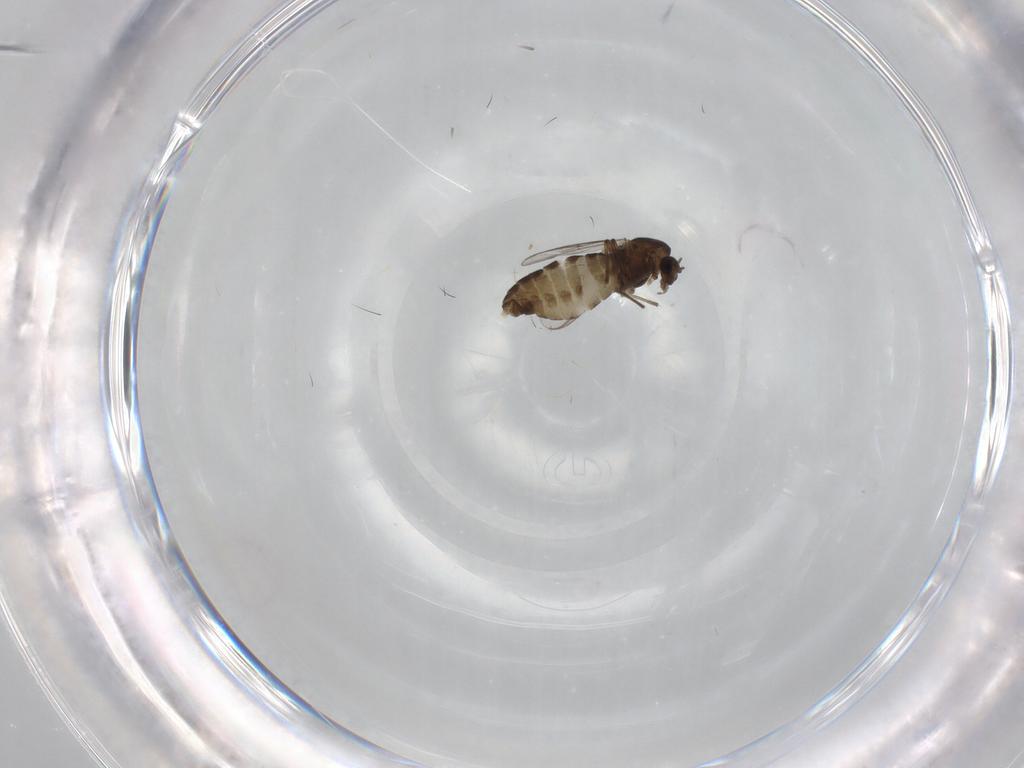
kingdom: Animalia
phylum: Arthropoda
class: Insecta
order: Diptera
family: Chironomidae
